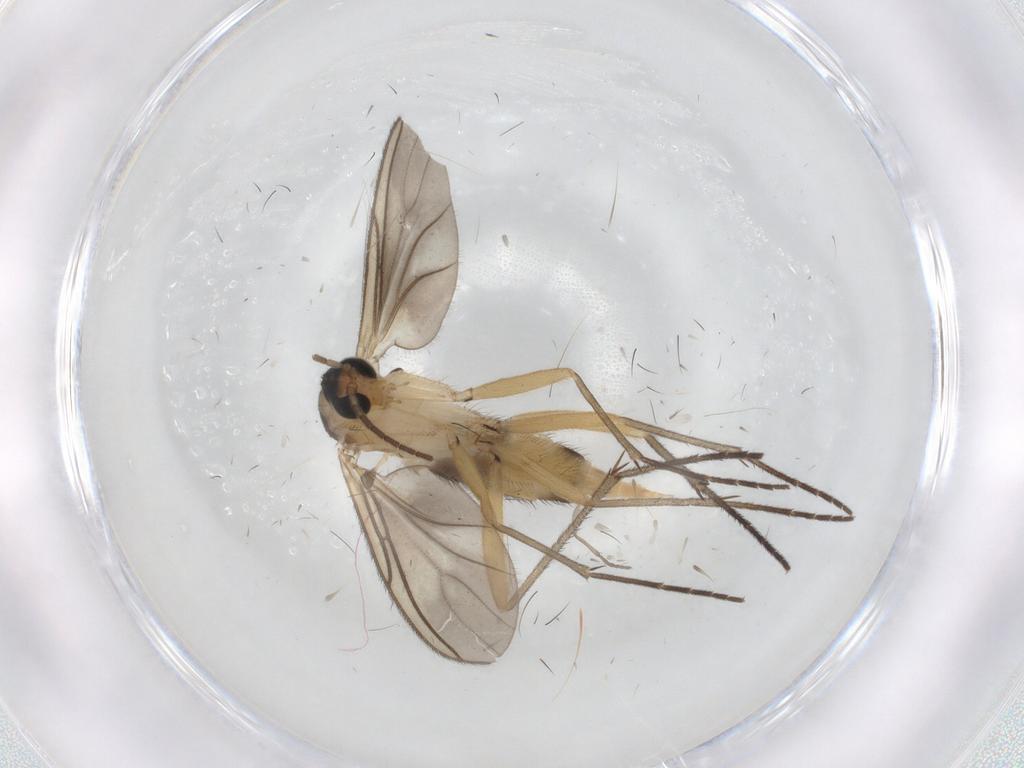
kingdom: Animalia
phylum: Arthropoda
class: Insecta
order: Diptera
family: Sciaridae
